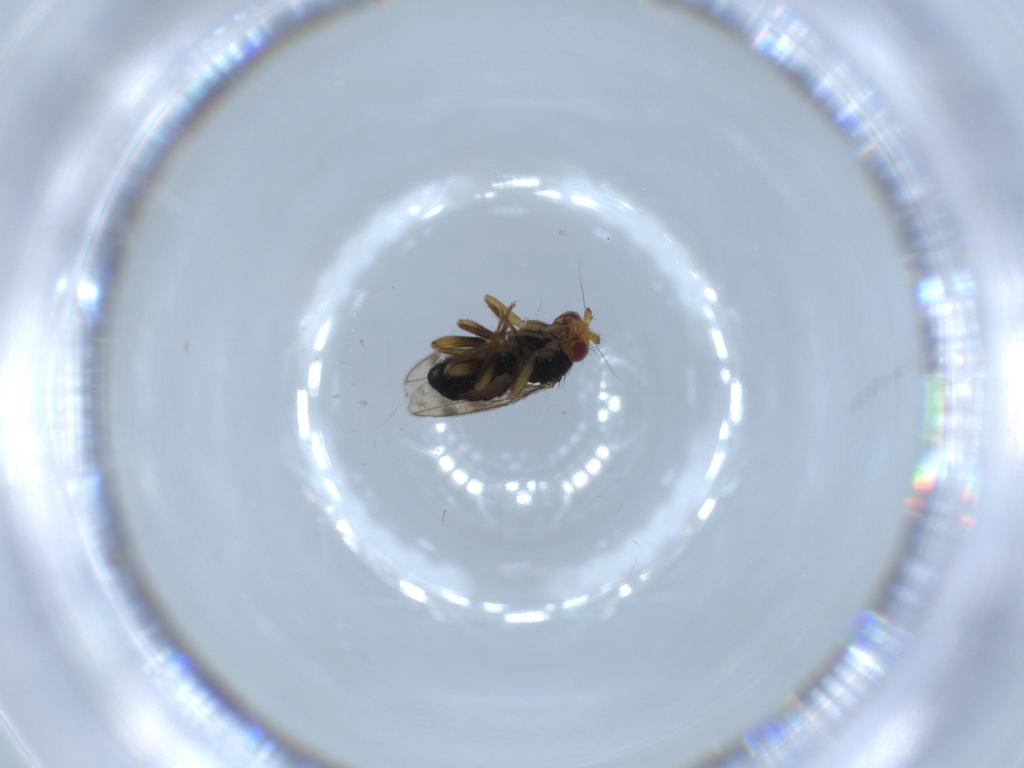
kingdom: Animalia
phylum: Arthropoda
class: Insecta
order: Diptera
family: Sphaeroceridae
